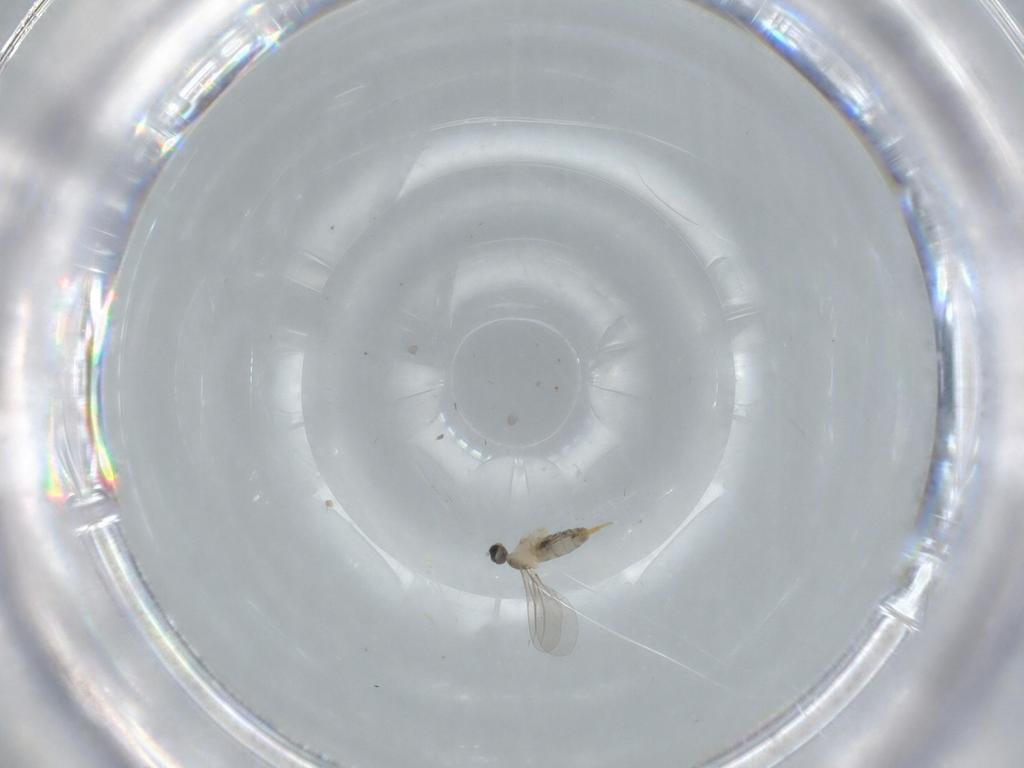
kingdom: Animalia
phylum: Arthropoda
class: Insecta
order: Diptera
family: Cecidomyiidae
